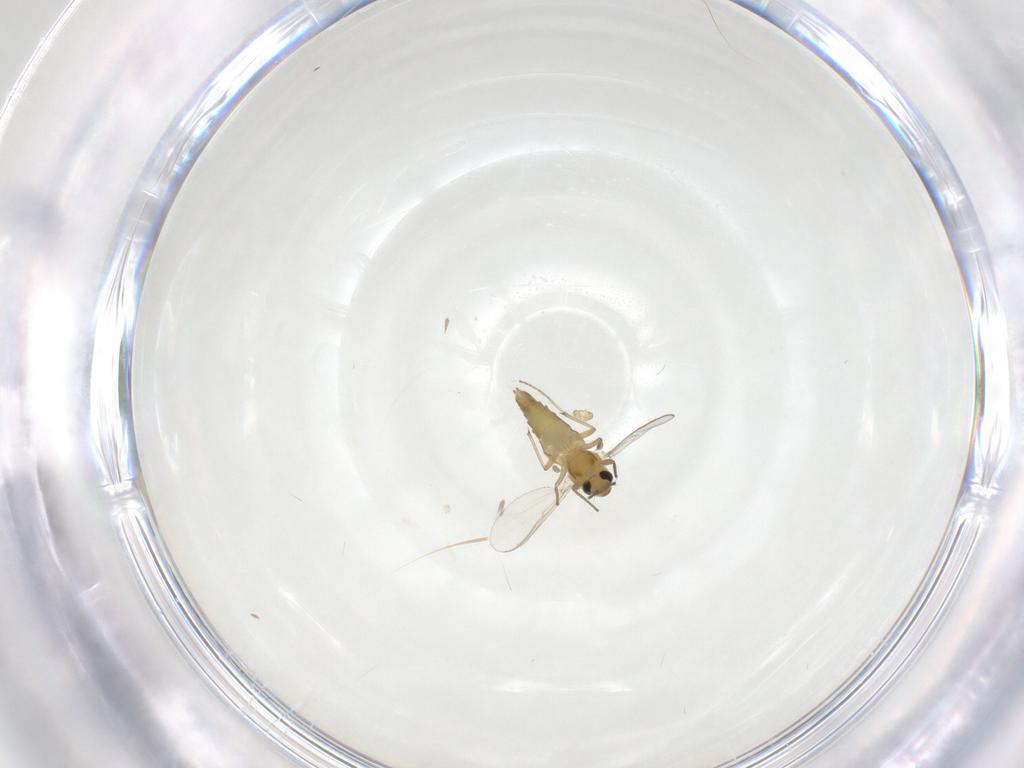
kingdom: Animalia
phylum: Arthropoda
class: Insecta
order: Diptera
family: Chironomidae
